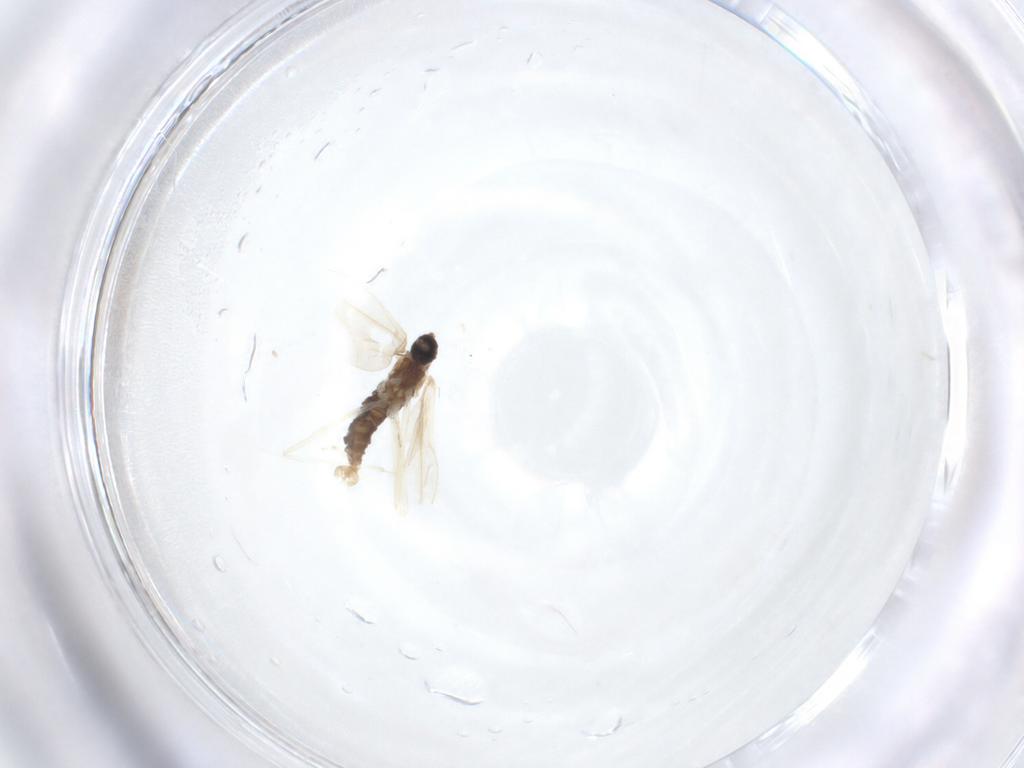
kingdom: Animalia
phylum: Arthropoda
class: Insecta
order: Diptera
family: Cecidomyiidae
